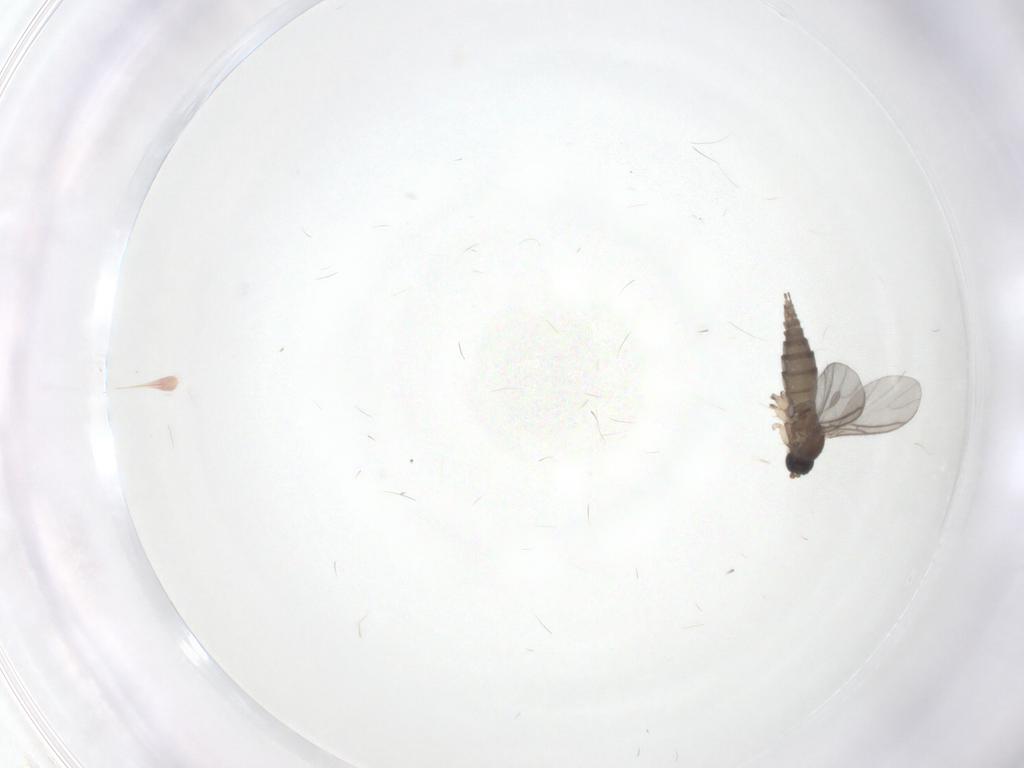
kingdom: Animalia
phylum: Arthropoda
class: Insecta
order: Diptera
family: Sciaridae
